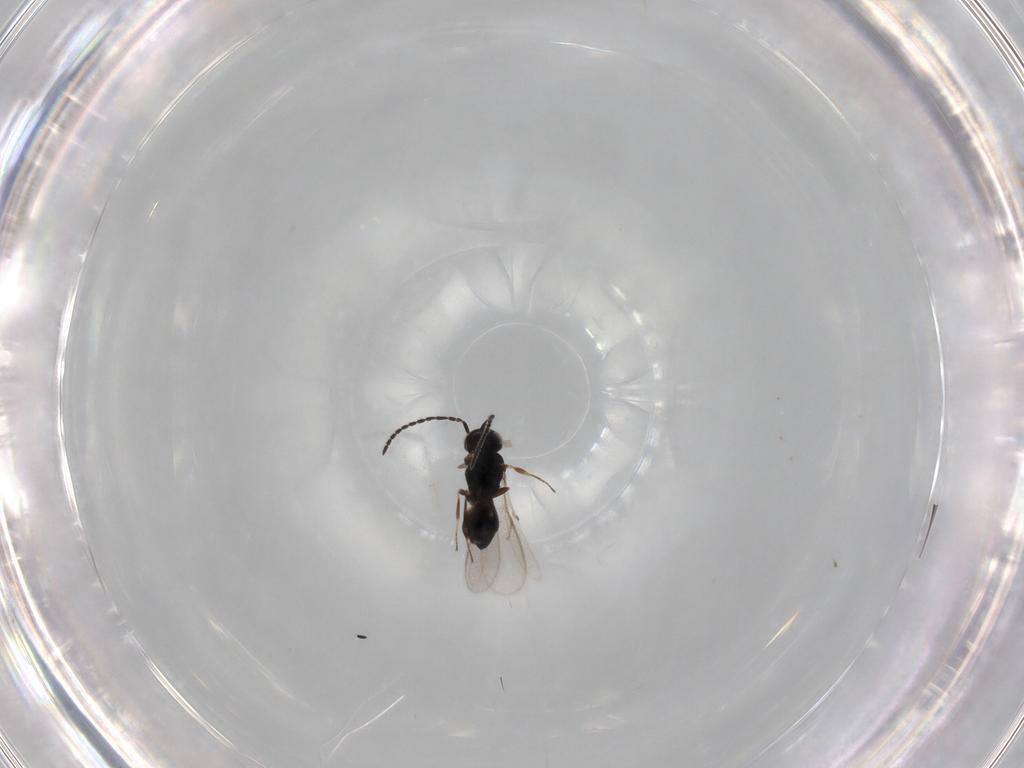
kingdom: Animalia
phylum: Arthropoda
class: Insecta
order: Hymenoptera
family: Scelionidae
